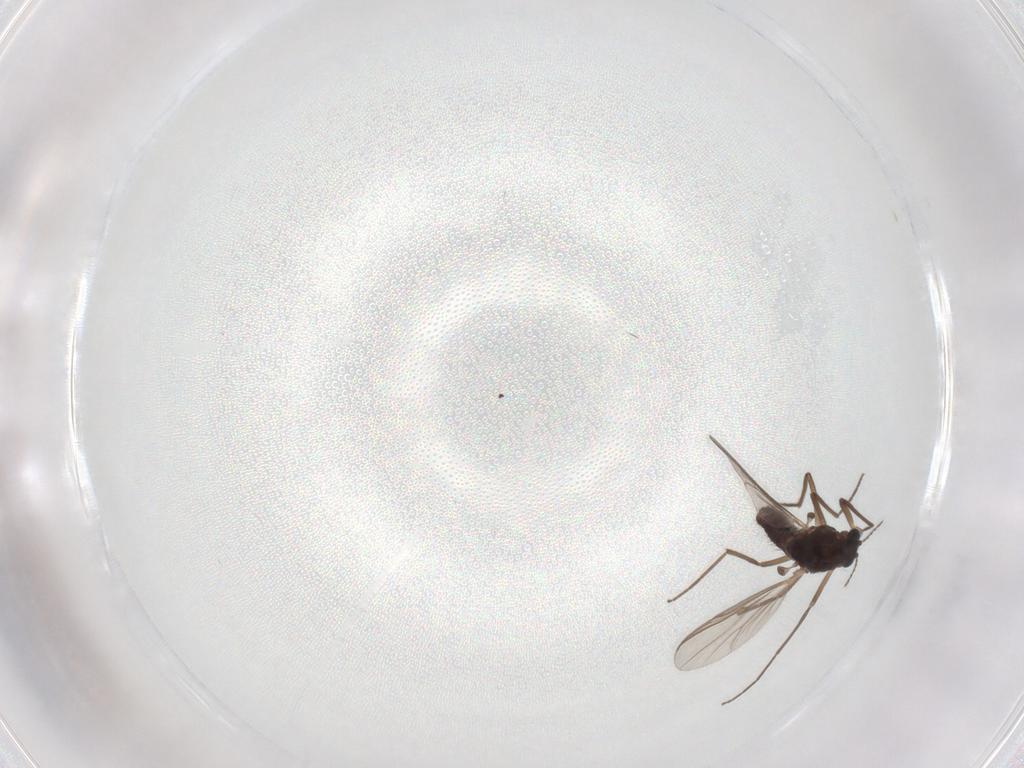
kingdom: Animalia
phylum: Arthropoda
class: Insecta
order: Diptera
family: Chironomidae
